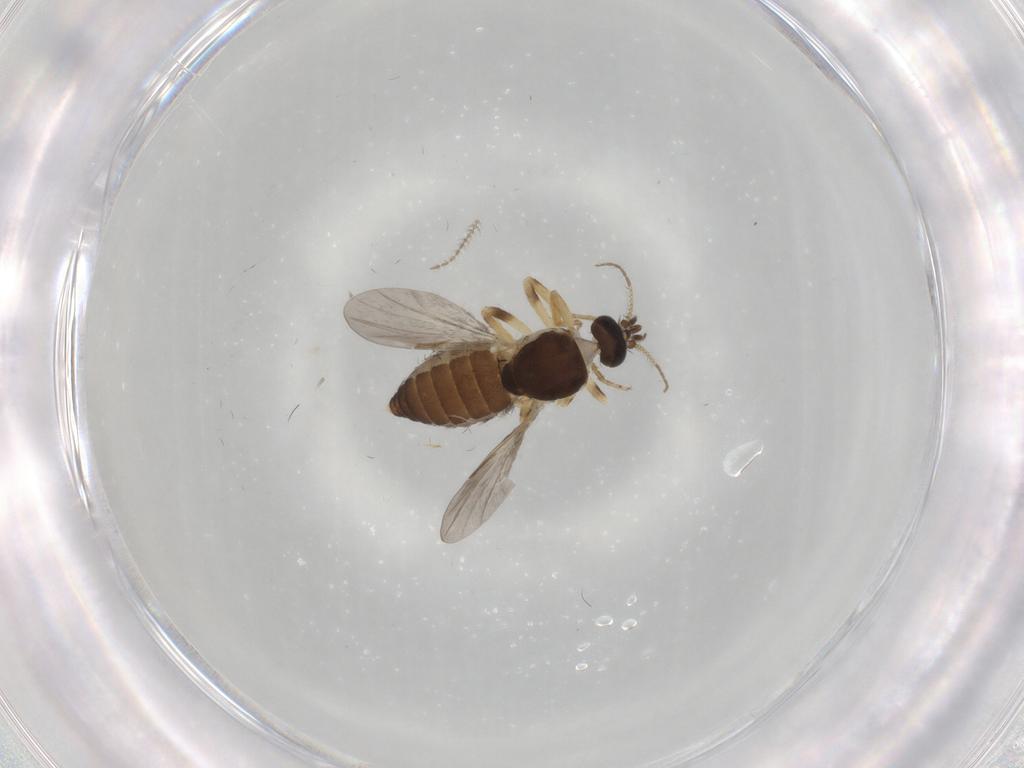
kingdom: Animalia
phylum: Arthropoda
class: Insecta
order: Diptera
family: Ceratopogonidae
